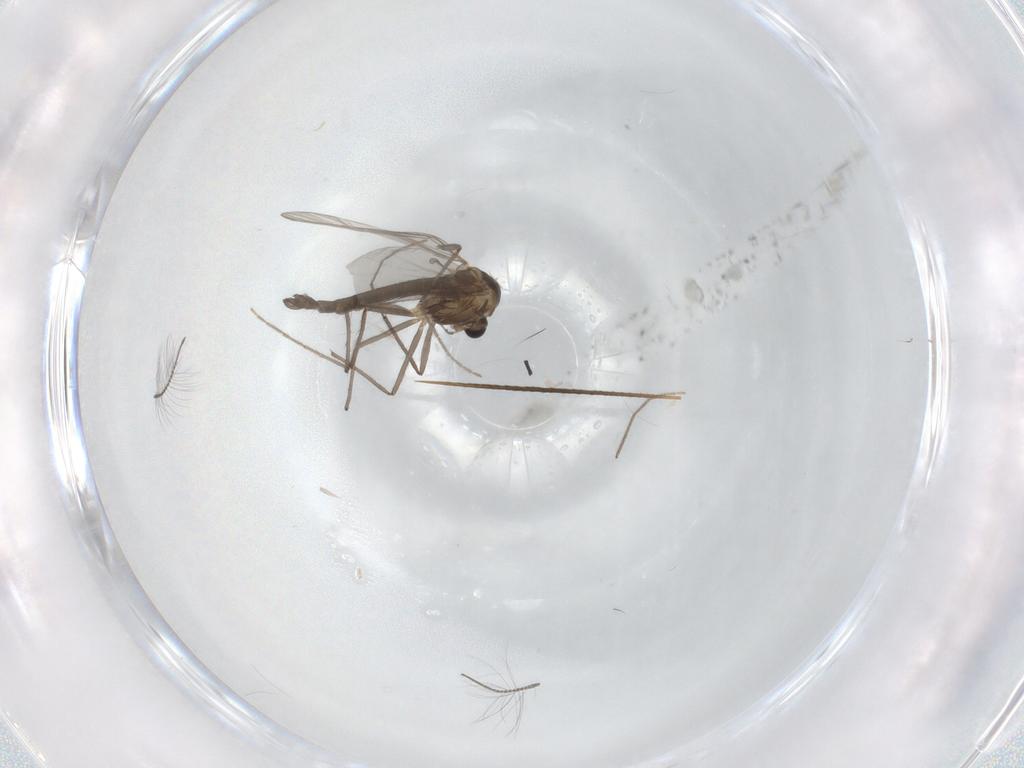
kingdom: Animalia
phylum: Arthropoda
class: Insecta
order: Diptera
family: Chironomidae
